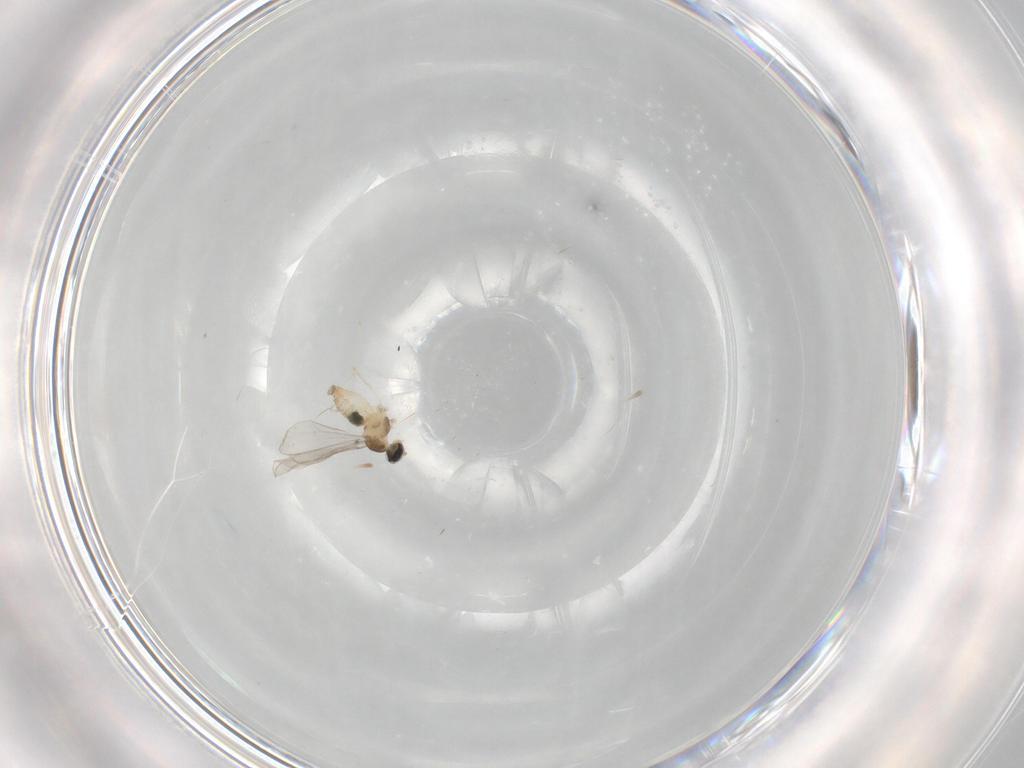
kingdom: Animalia
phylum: Arthropoda
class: Insecta
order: Diptera
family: Cecidomyiidae
